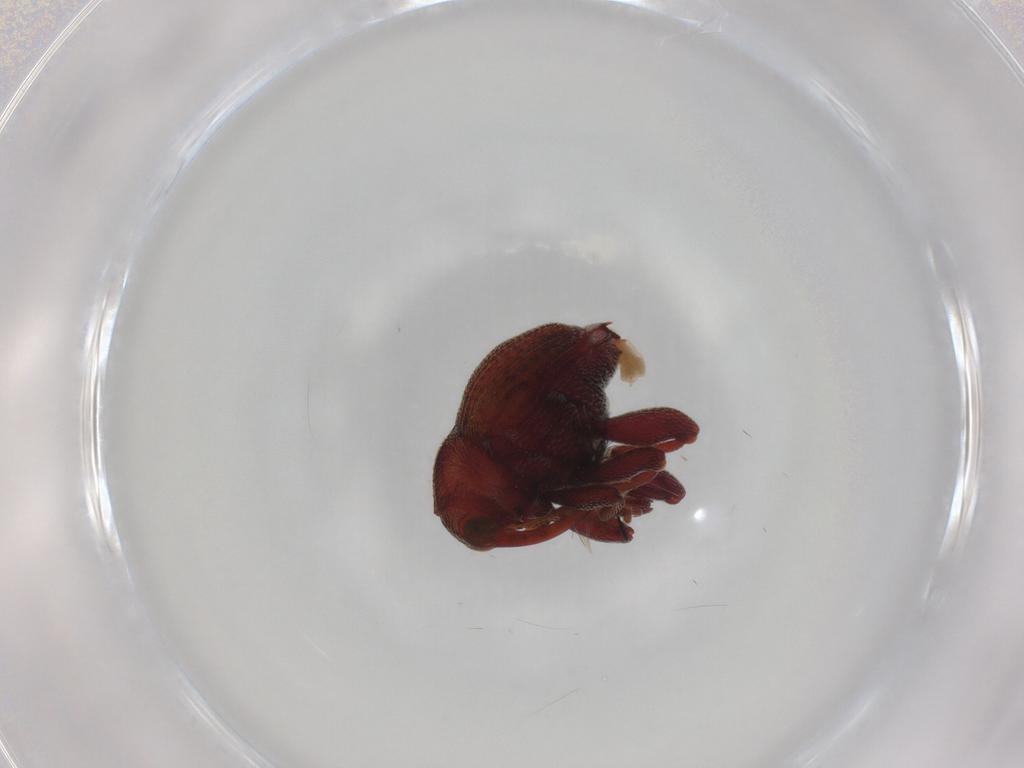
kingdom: Animalia
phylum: Arthropoda
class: Insecta
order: Coleoptera
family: Curculionidae
